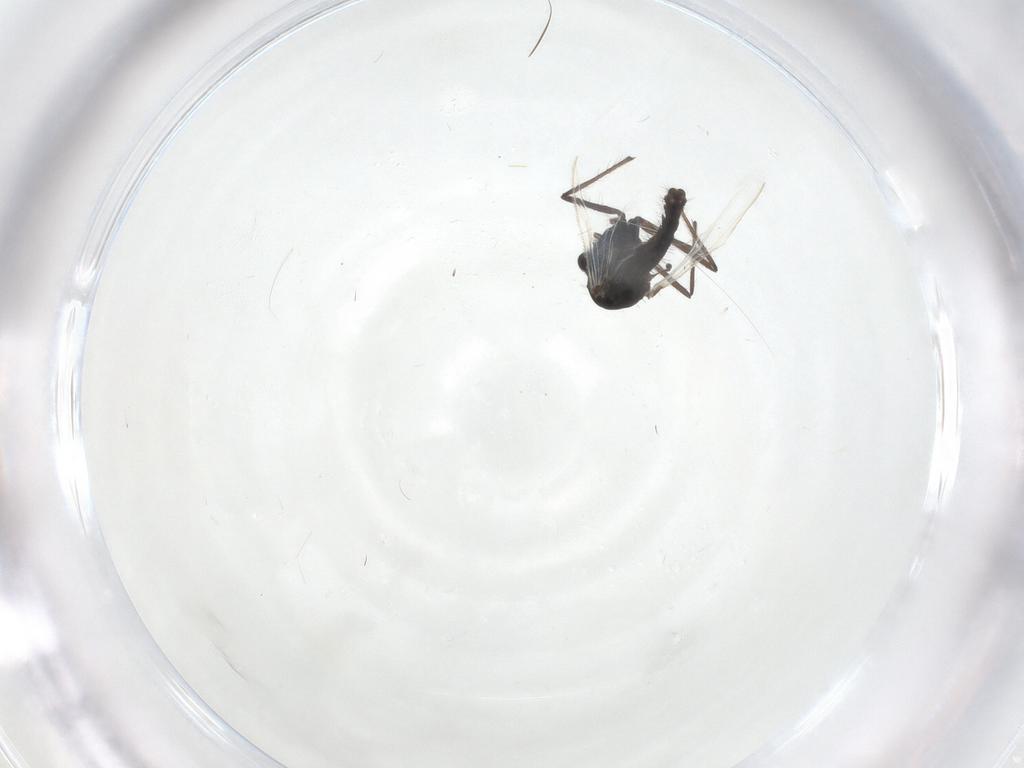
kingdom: Animalia
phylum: Arthropoda
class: Insecta
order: Diptera
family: Chironomidae
